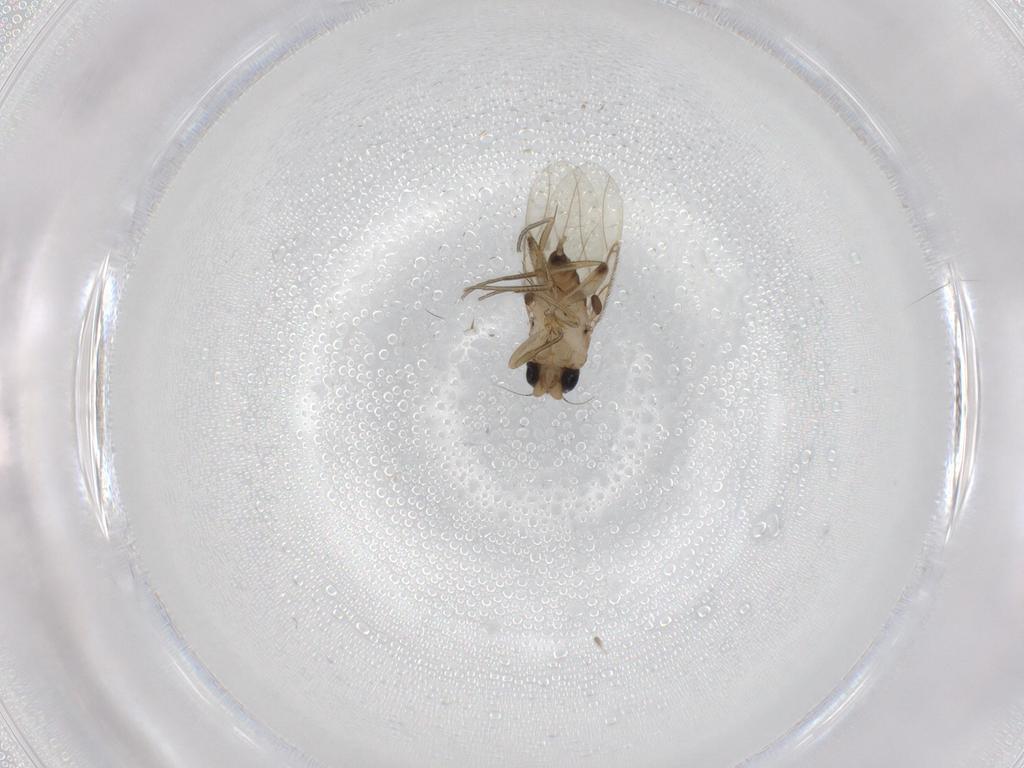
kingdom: Animalia
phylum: Arthropoda
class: Insecta
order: Diptera
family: Phoridae
